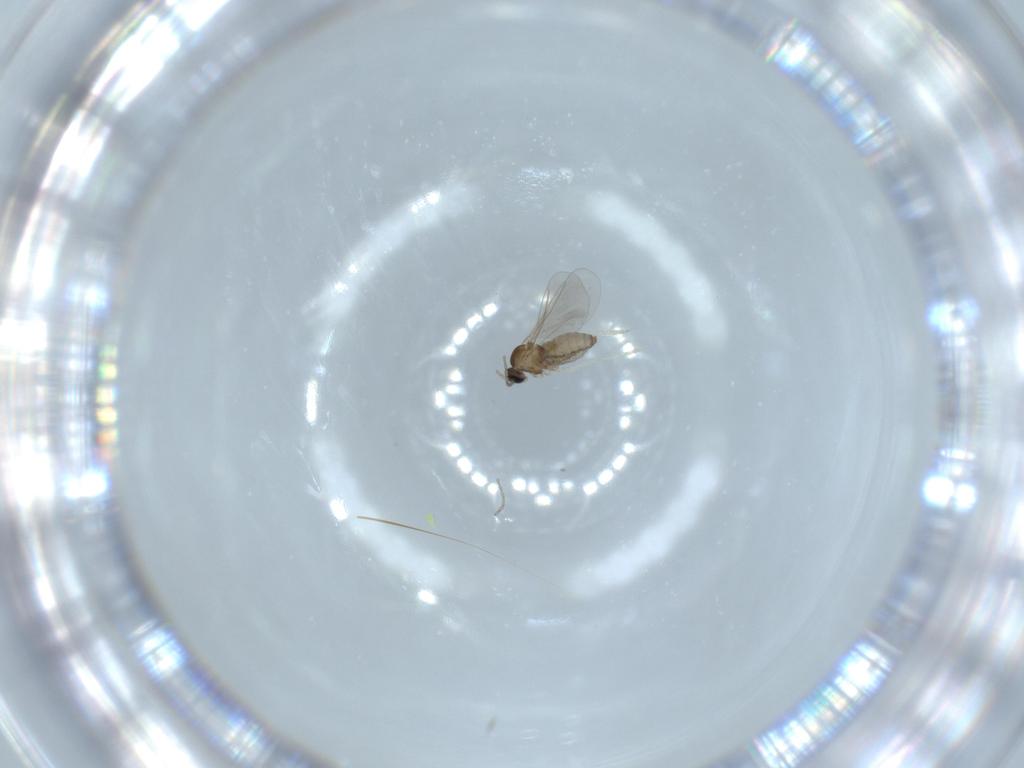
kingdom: Animalia
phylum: Arthropoda
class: Insecta
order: Diptera
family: Cecidomyiidae
